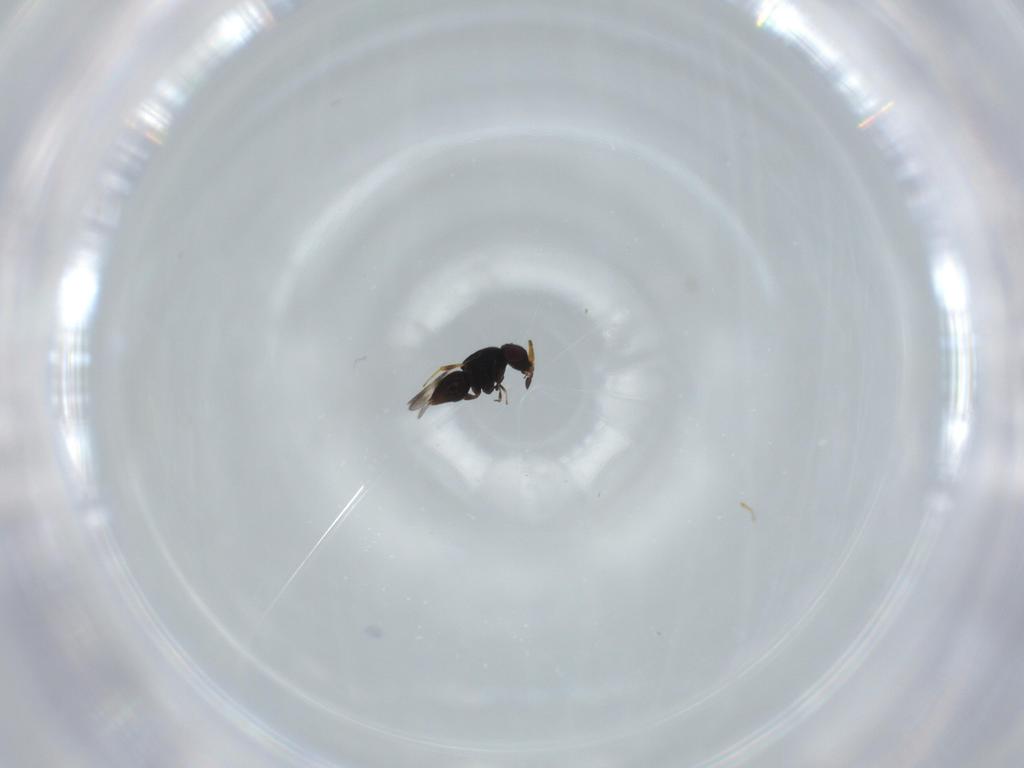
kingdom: Animalia
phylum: Arthropoda
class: Insecta
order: Hymenoptera
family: Ceraphronidae
